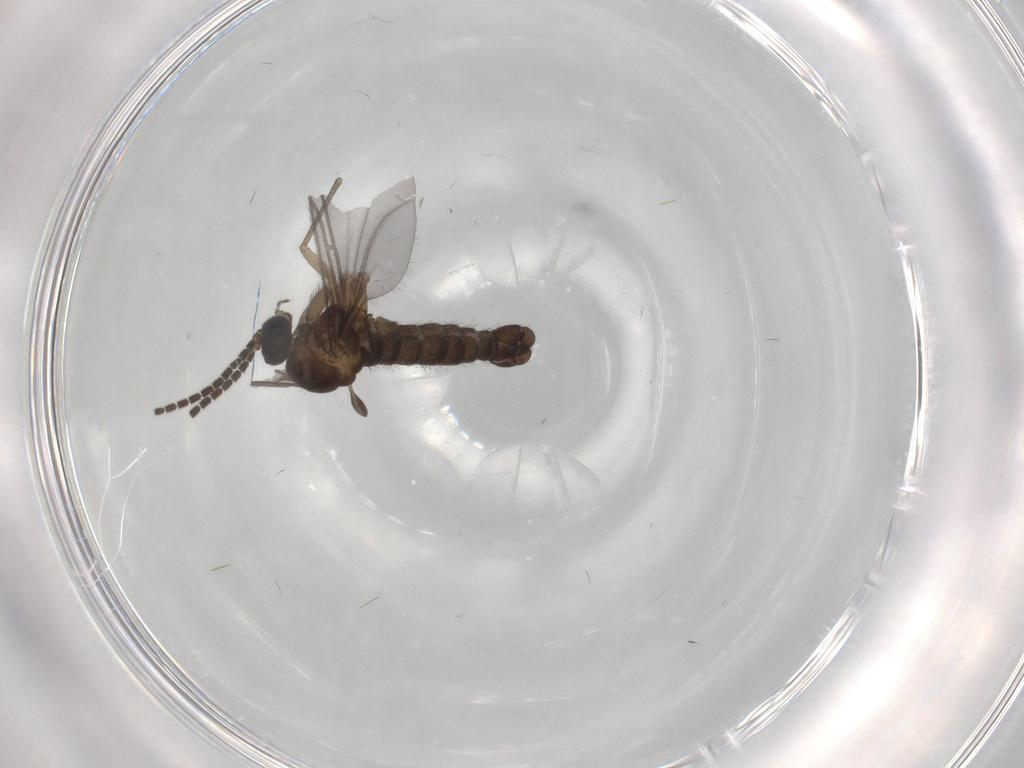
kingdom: Animalia
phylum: Arthropoda
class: Insecta
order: Diptera
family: Sciaridae
